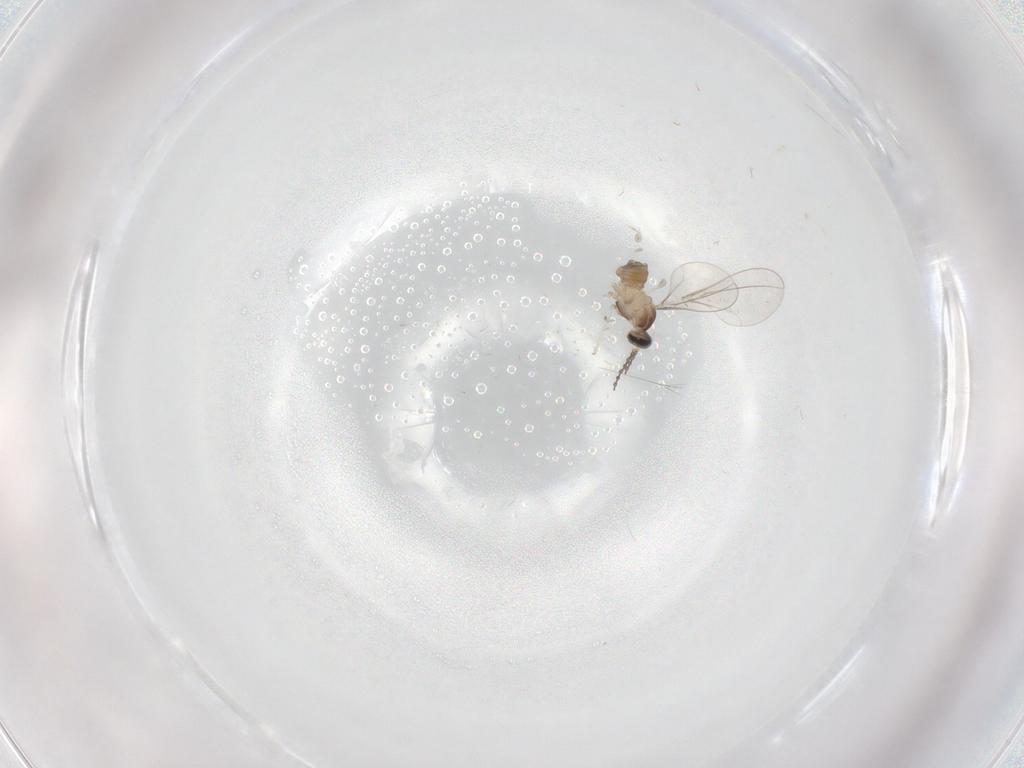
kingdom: Animalia
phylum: Arthropoda
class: Insecta
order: Diptera
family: Cecidomyiidae
